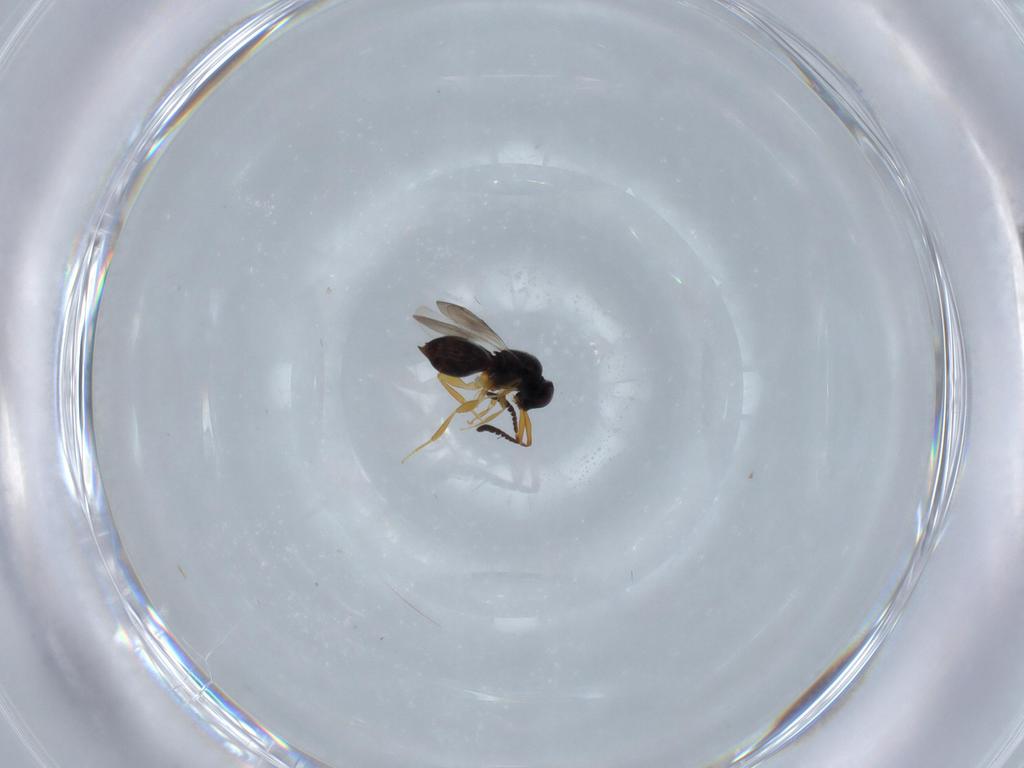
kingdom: Animalia
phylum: Arthropoda
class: Insecta
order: Hymenoptera
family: Formicidae
